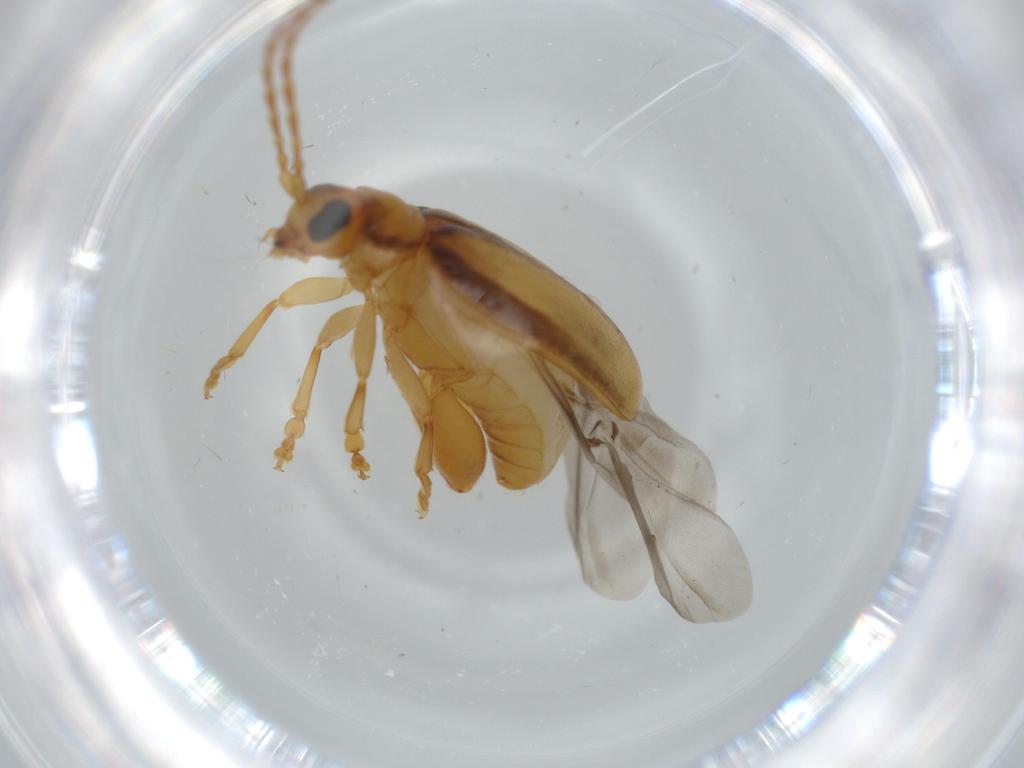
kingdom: Animalia
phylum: Arthropoda
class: Insecta
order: Coleoptera
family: Chrysomelidae
